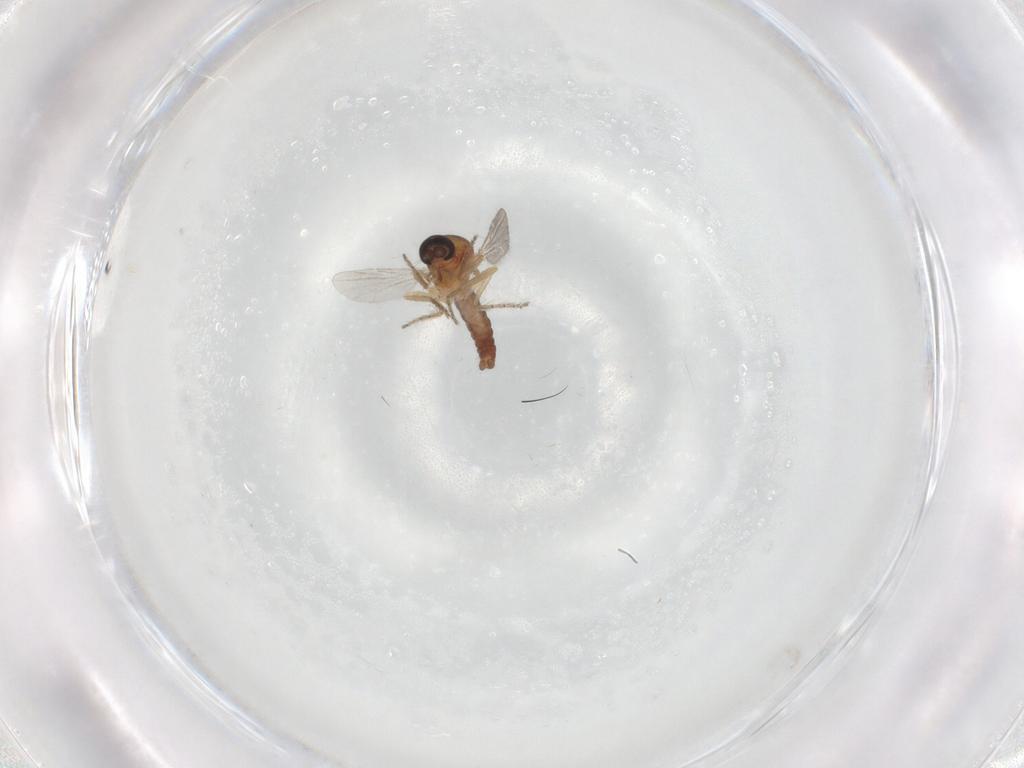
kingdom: Animalia
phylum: Arthropoda
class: Insecta
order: Diptera
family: Ceratopogonidae
